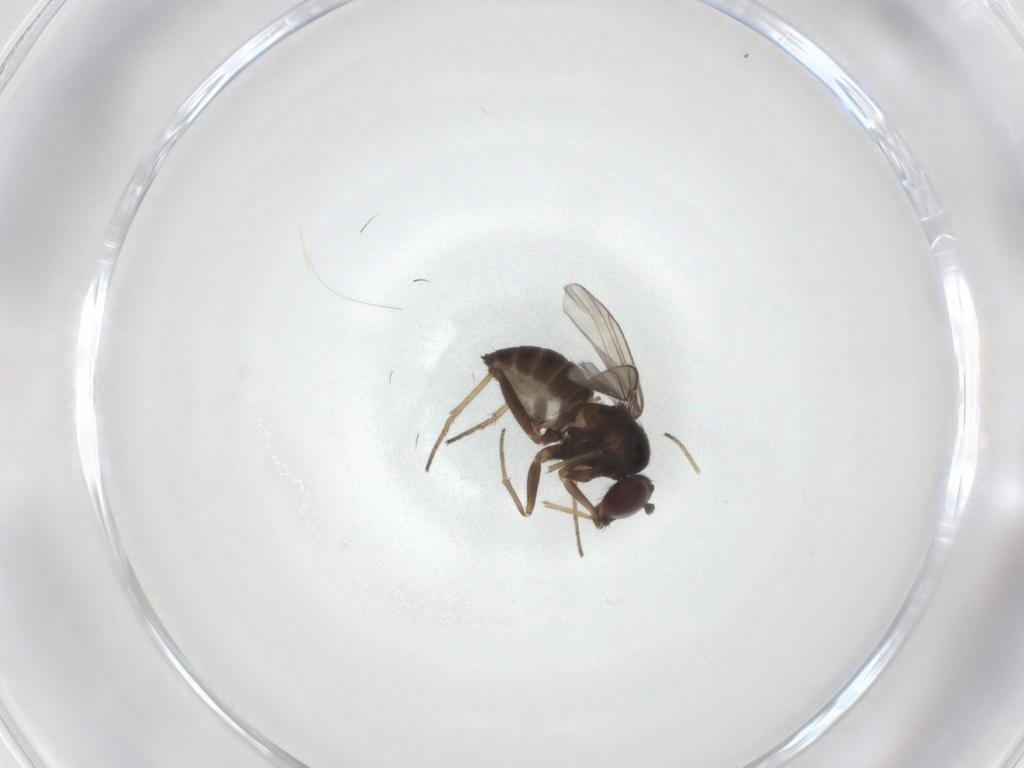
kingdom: Animalia
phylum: Arthropoda
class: Insecta
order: Diptera
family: Dolichopodidae
